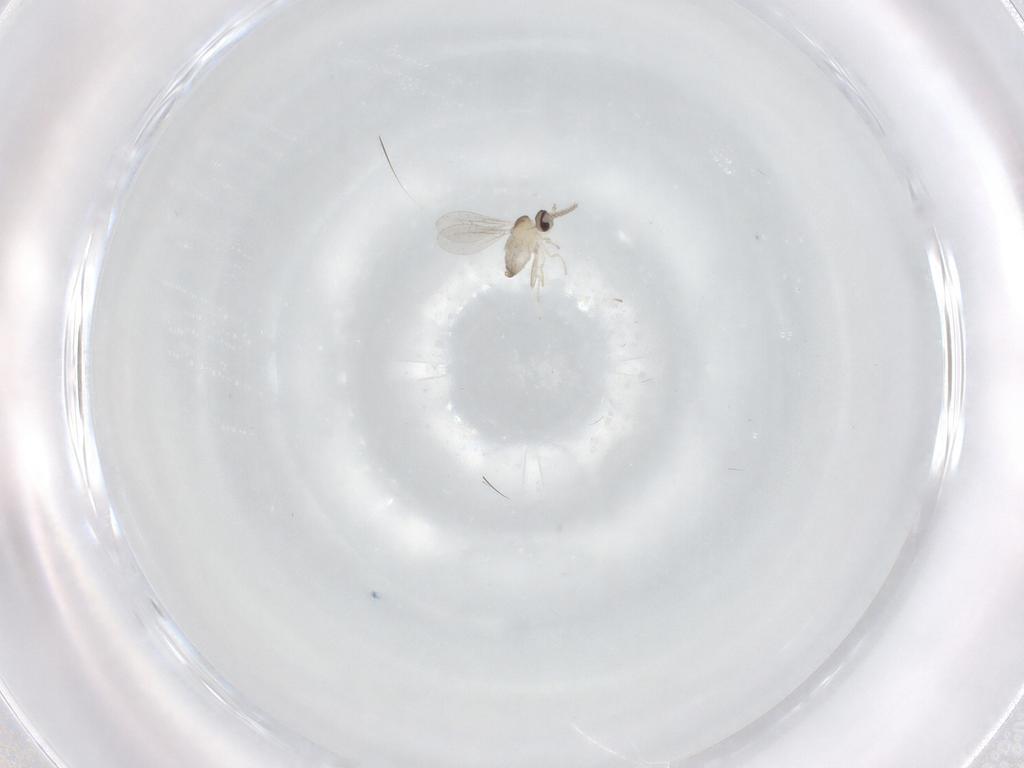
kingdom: Animalia
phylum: Arthropoda
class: Insecta
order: Diptera
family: Cecidomyiidae
